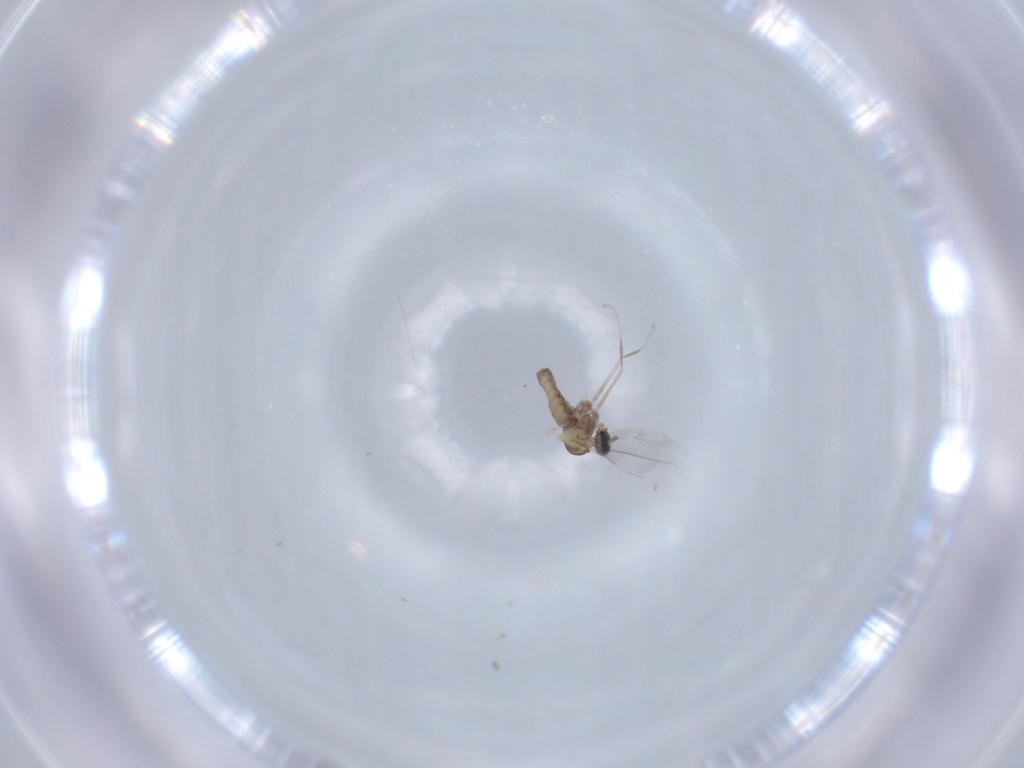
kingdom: Animalia
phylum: Arthropoda
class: Insecta
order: Diptera
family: Cecidomyiidae
